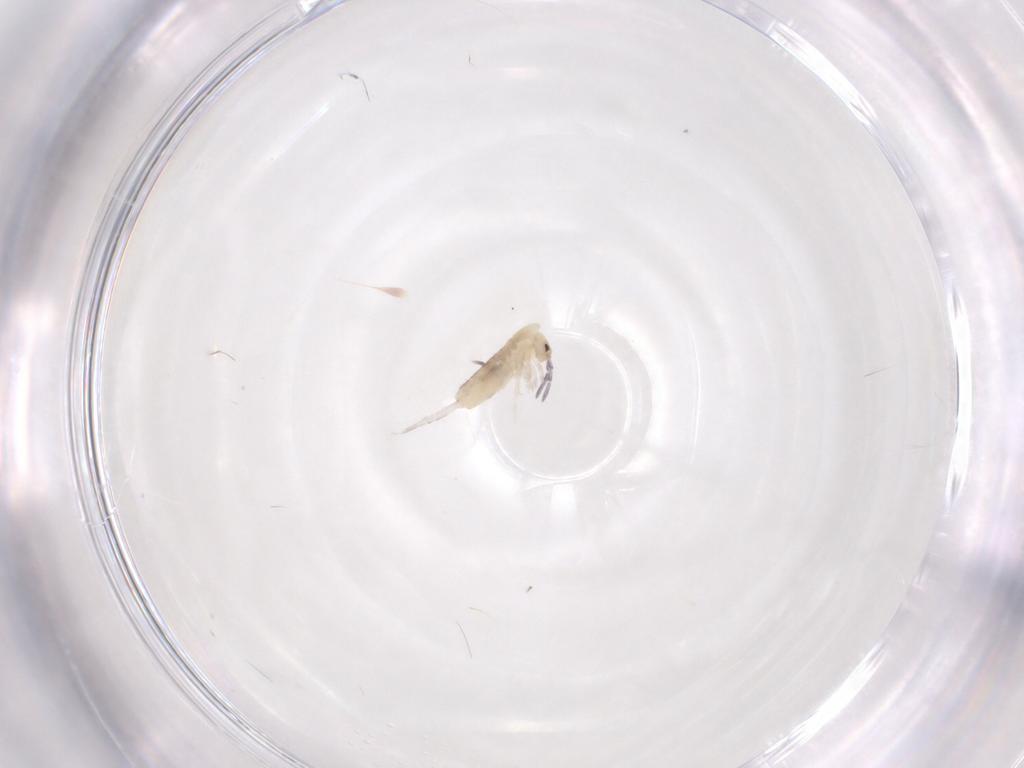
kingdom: Animalia
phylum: Arthropoda
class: Collembola
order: Entomobryomorpha
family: Entomobryidae
